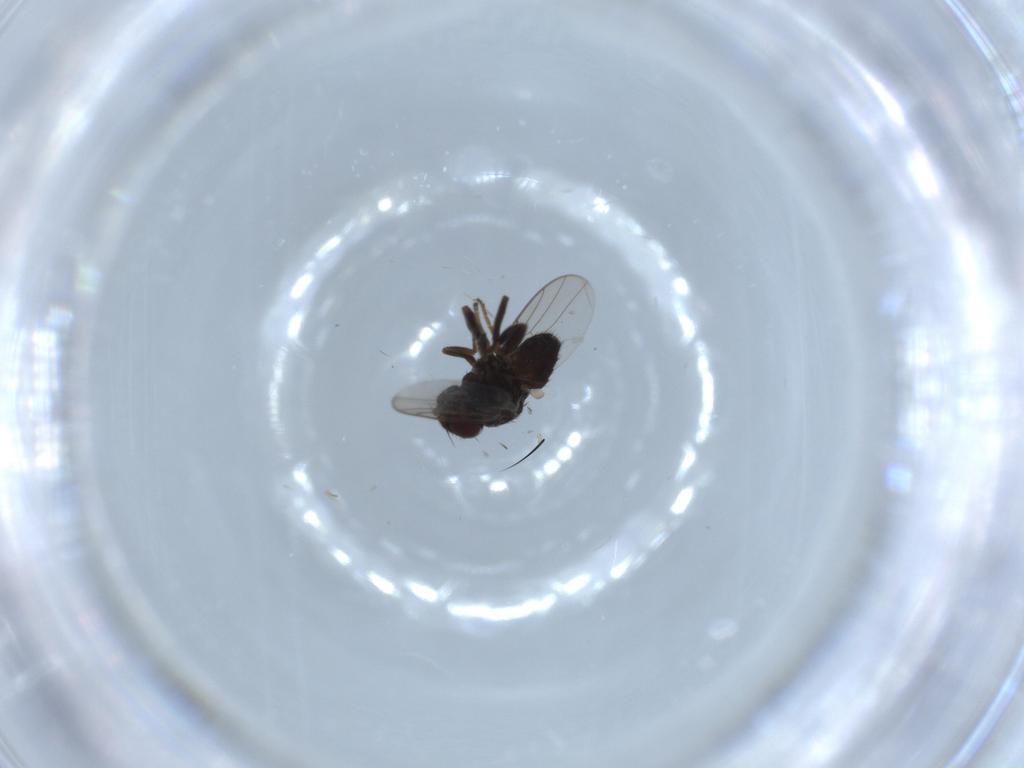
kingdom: Animalia
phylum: Arthropoda
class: Insecta
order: Diptera
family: Chloropidae
